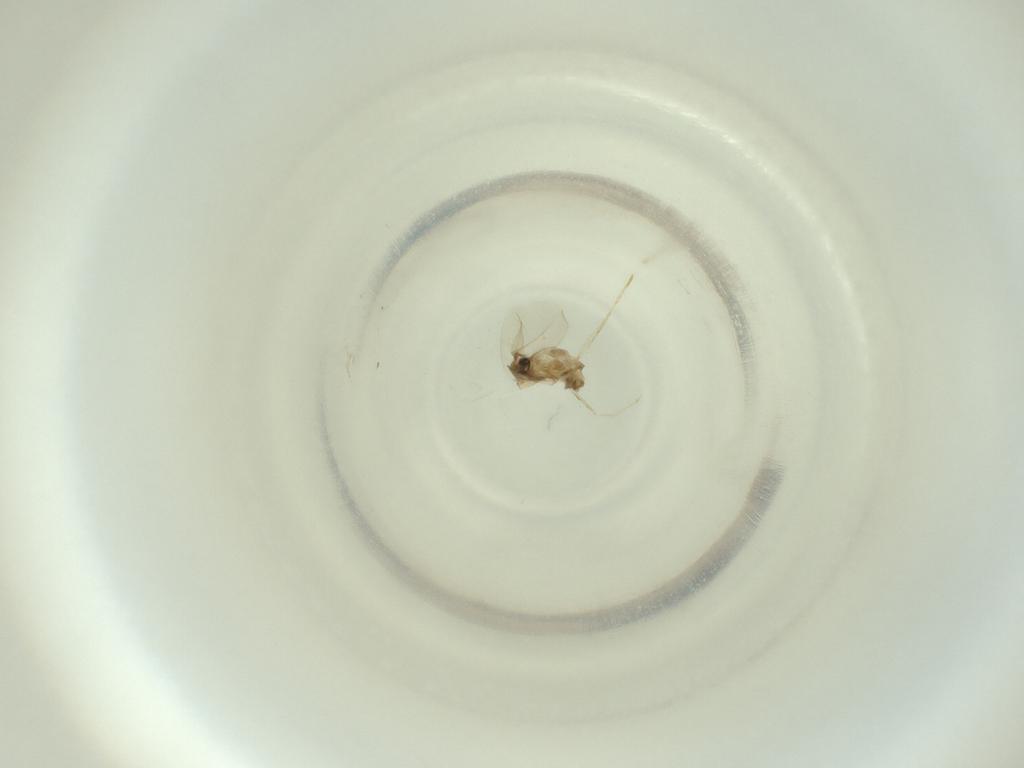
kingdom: Animalia
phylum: Arthropoda
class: Insecta
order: Diptera
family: Cecidomyiidae
